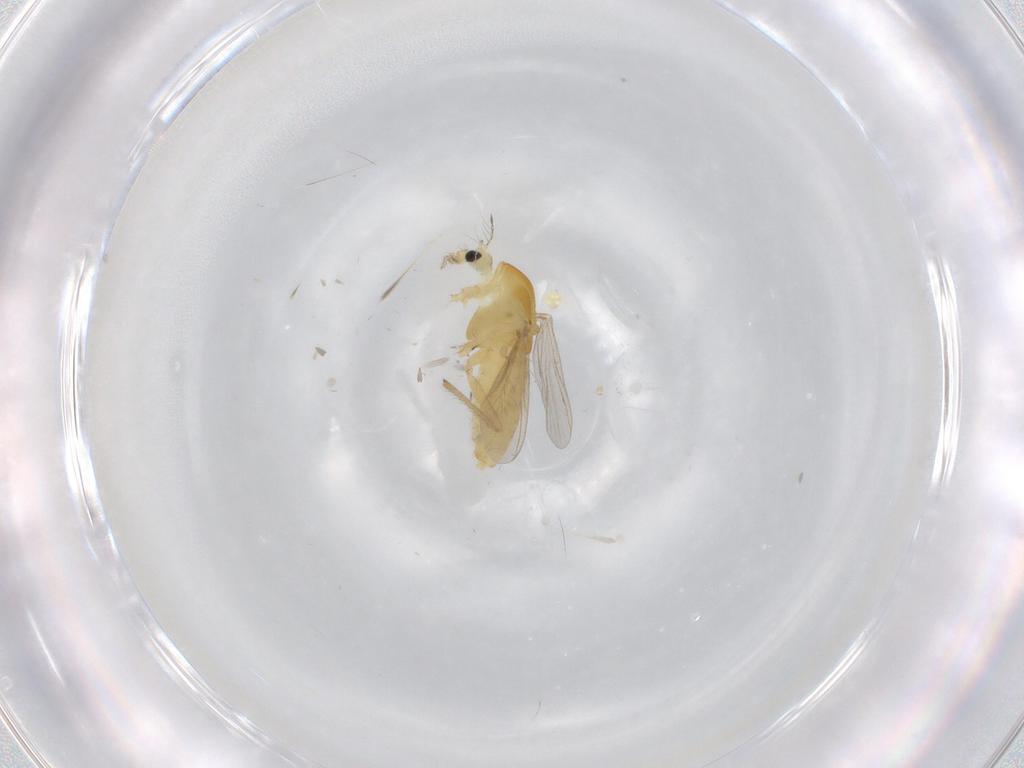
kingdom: Animalia
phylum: Arthropoda
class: Insecta
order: Diptera
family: Chironomidae
